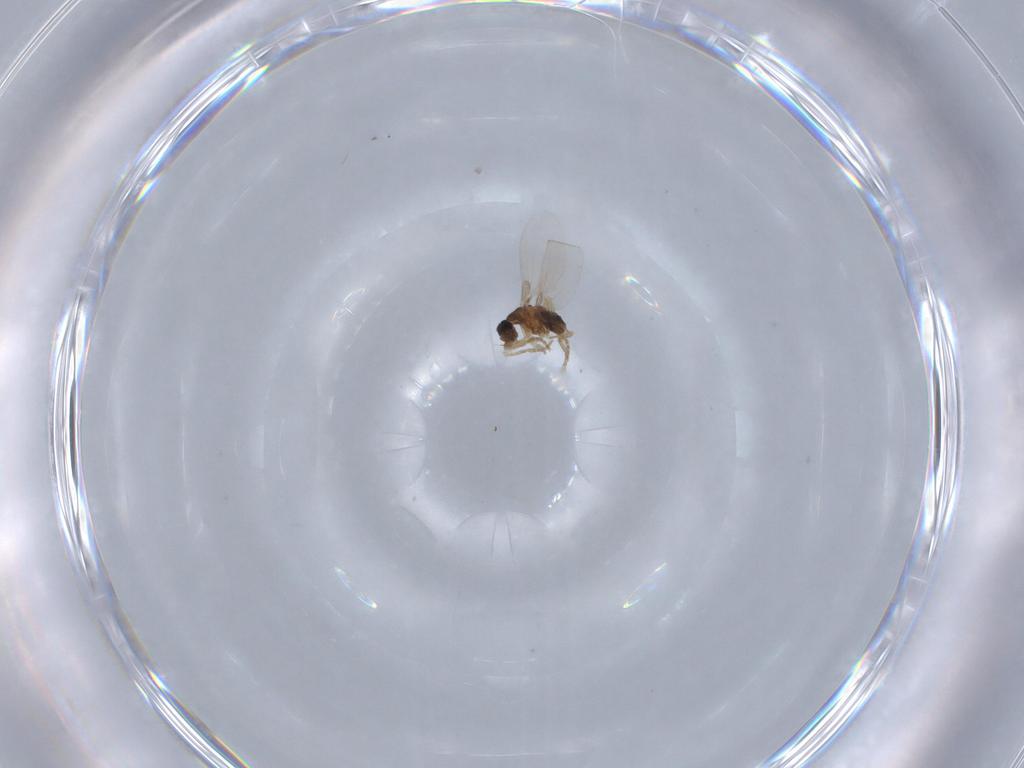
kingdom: Animalia
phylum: Arthropoda
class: Insecta
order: Diptera
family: Phoridae
